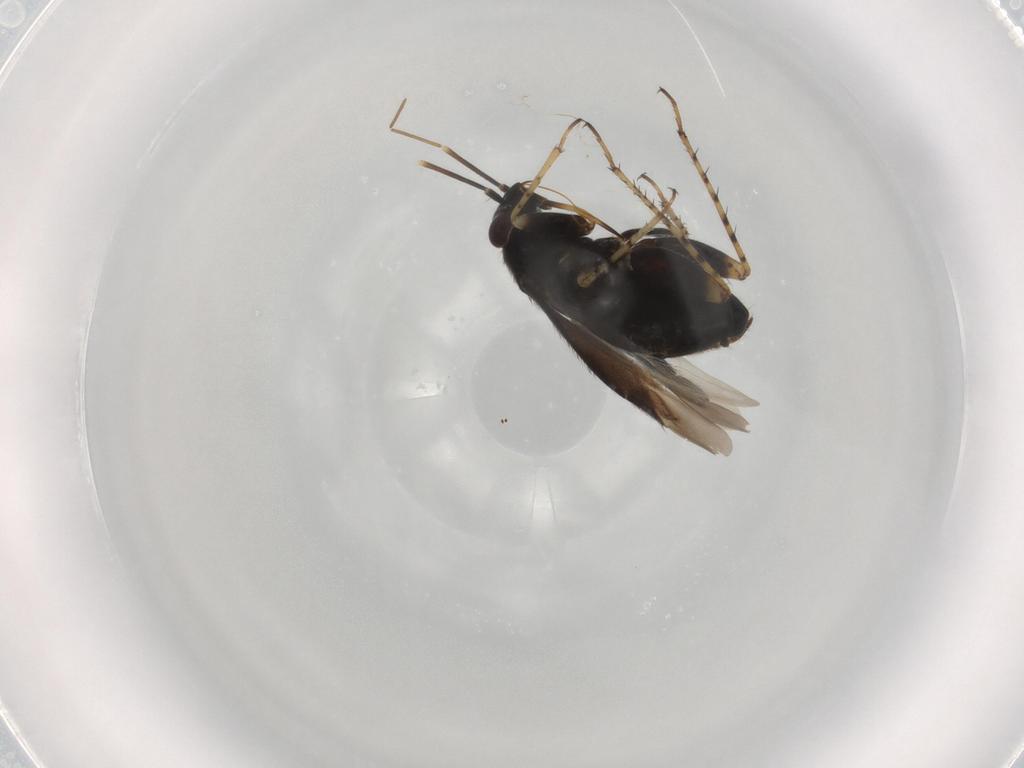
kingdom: Animalia
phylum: Arthropoda
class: Insecta
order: Hemiptera
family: Miridae
